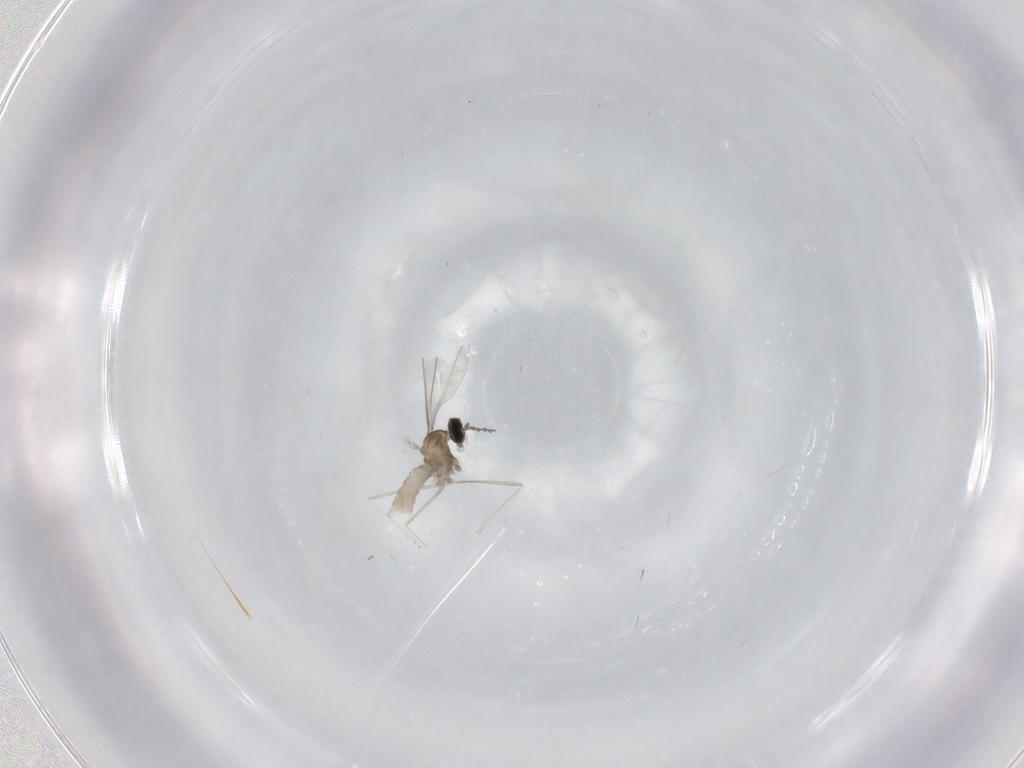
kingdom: Animalia
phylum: Arthropoda
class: Insecta
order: Diptera
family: Cecidomyiidae
